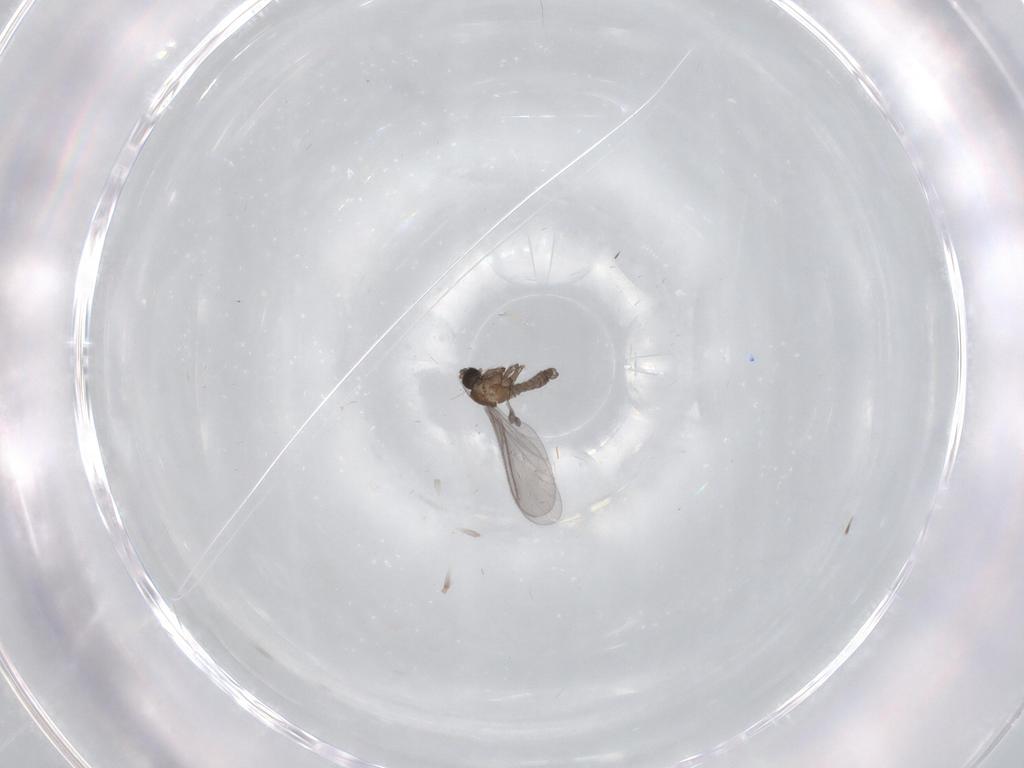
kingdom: Animalia
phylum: Arthropoda
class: Insecta
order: Diptera
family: Sciaridae
